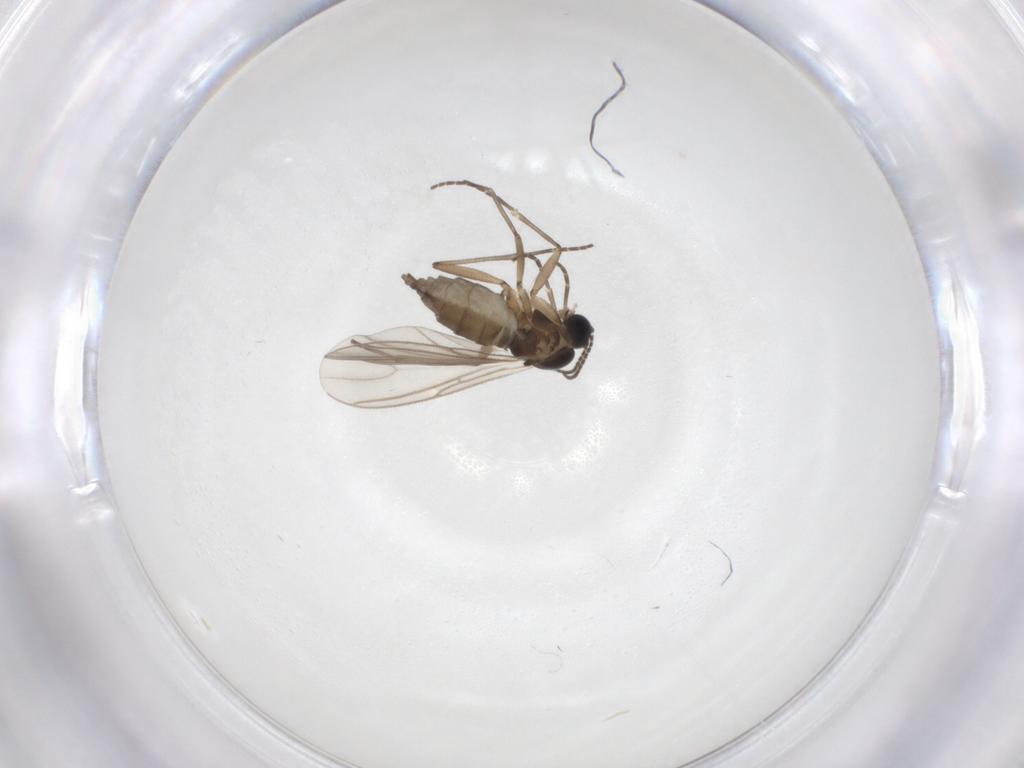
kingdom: Animalia
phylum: Arthropoda
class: Insecta
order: Diptera
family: Chironomidae
